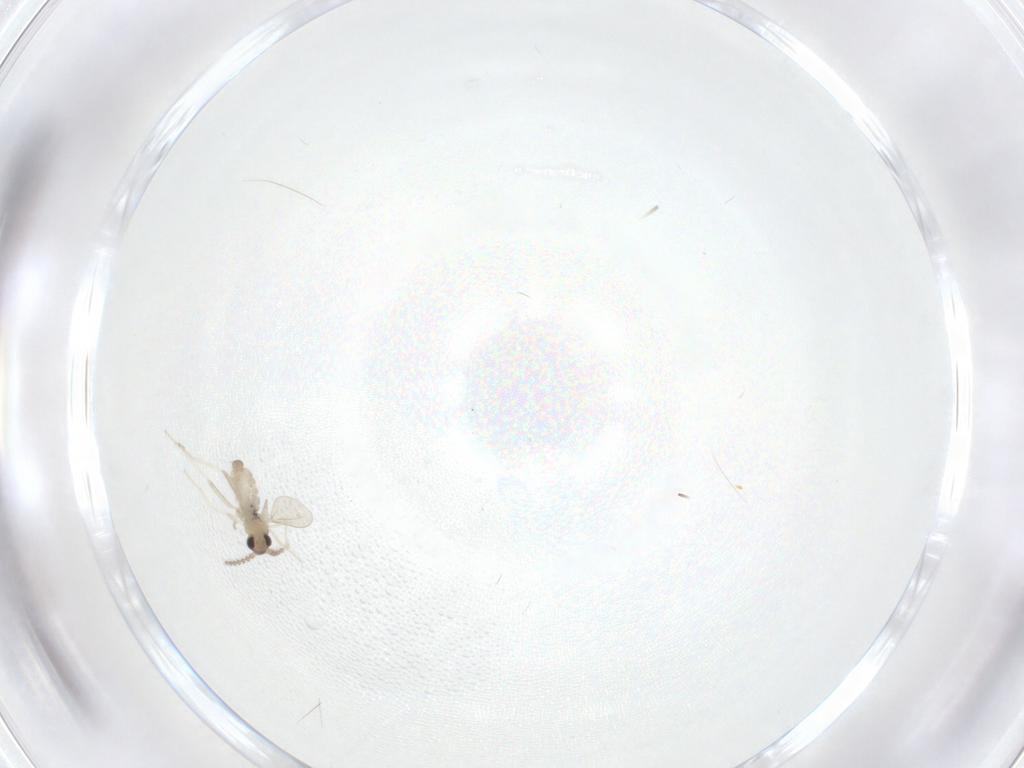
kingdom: Animalia
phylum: Arthropoda
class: Insecta
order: Diptera
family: Cecidomyiidae
